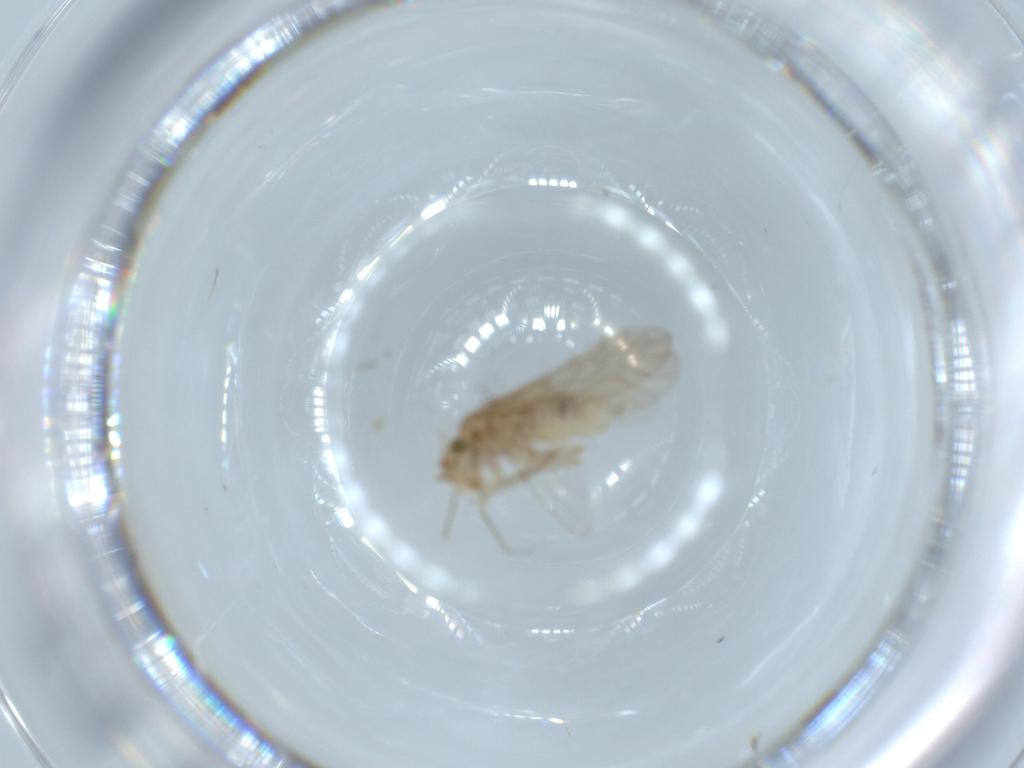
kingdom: Animalia
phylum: Arthropoda
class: Insecta
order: Psocodea
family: Lachesillidae
